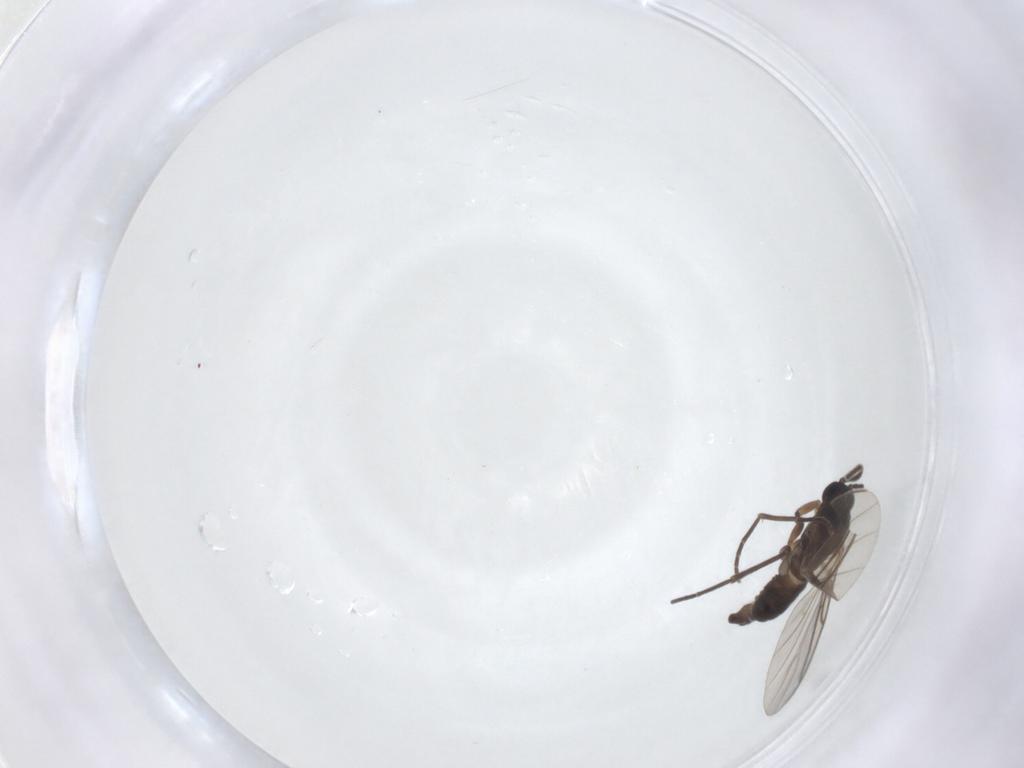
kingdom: Animalia
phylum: Arthropoda
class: Insecta
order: Diptera
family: Sciaridae
